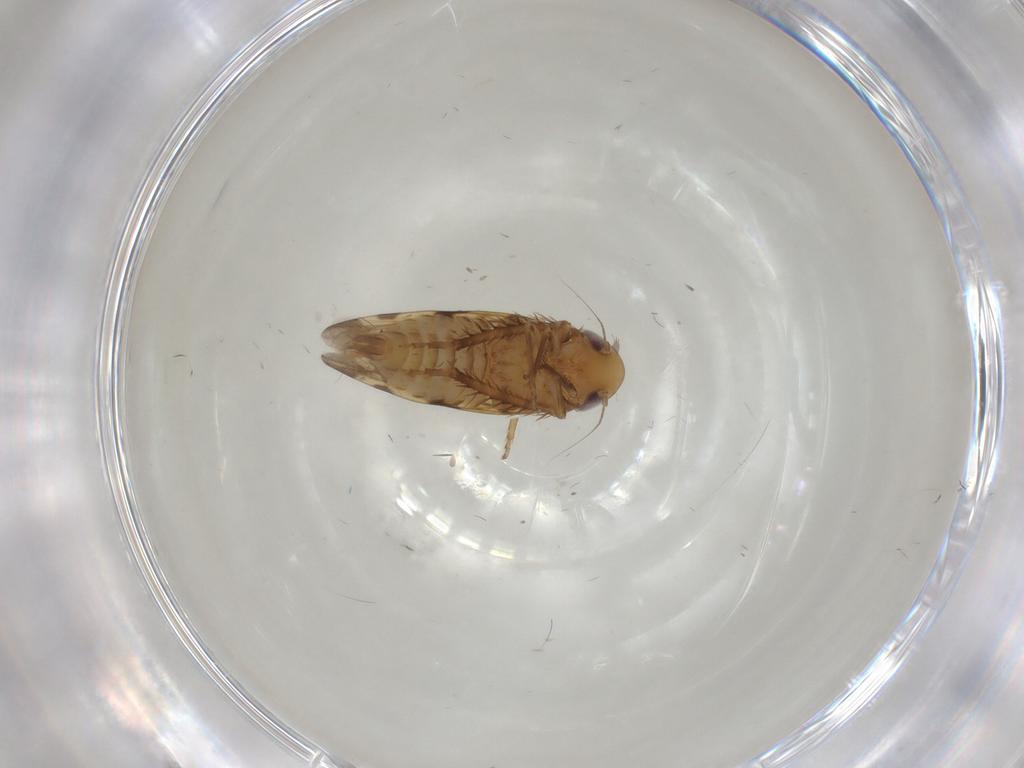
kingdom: Animalia
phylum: Arthropoda
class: Insecta
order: Hemiptera
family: Cicadellidae
